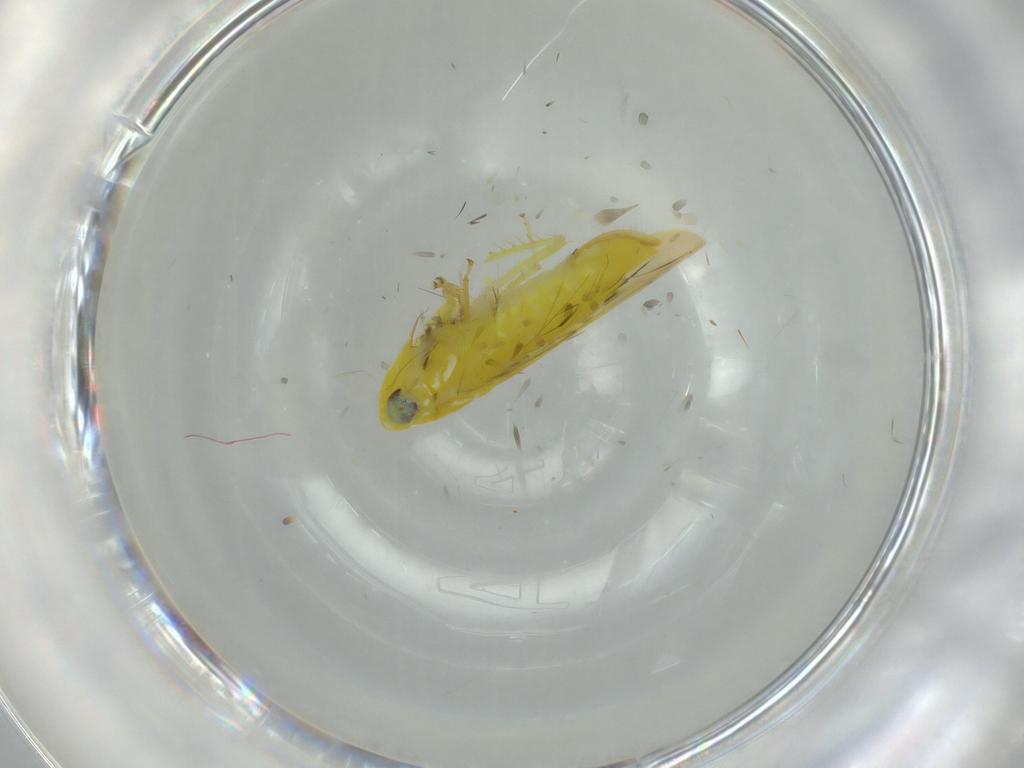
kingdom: Animalia
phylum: Arthropoda
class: Insecta
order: Hemiptera
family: Cicadellidae
